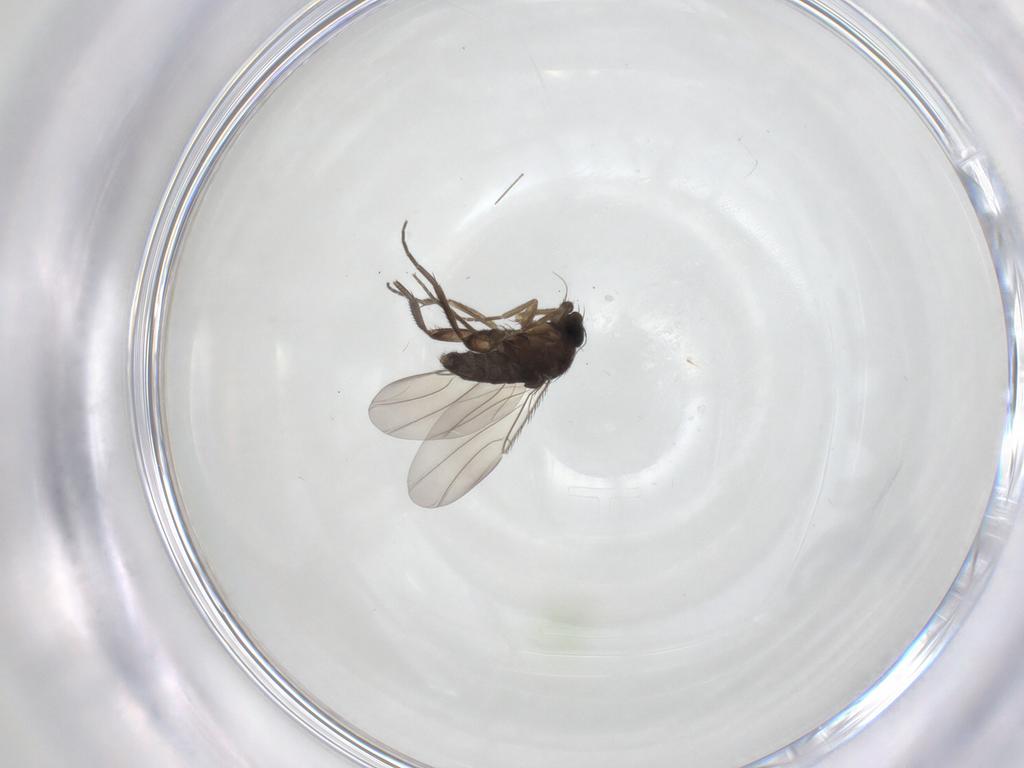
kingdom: Animalia
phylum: Arthropoda
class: Insecta
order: Diptera
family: Phoridae
